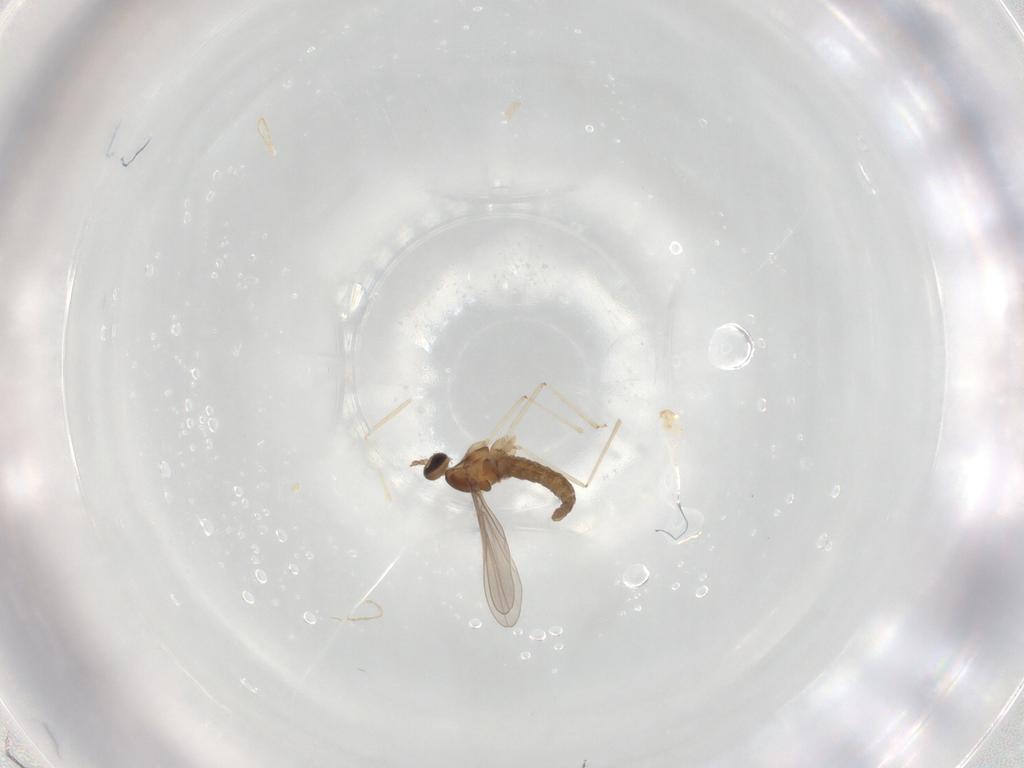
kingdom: Animalia
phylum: Arthropoda
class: Insecta
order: Diptera
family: Cecidomyiidae
